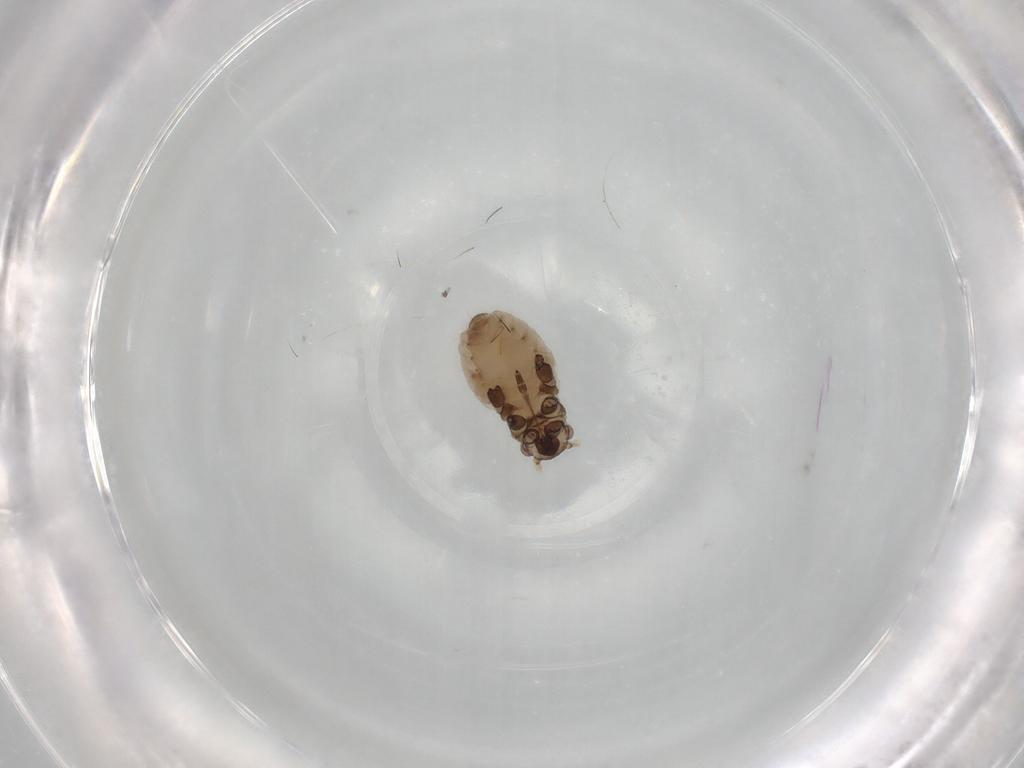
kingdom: Animalia
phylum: Arthropoda
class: Insecta
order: Hemiptera
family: Aphididae
